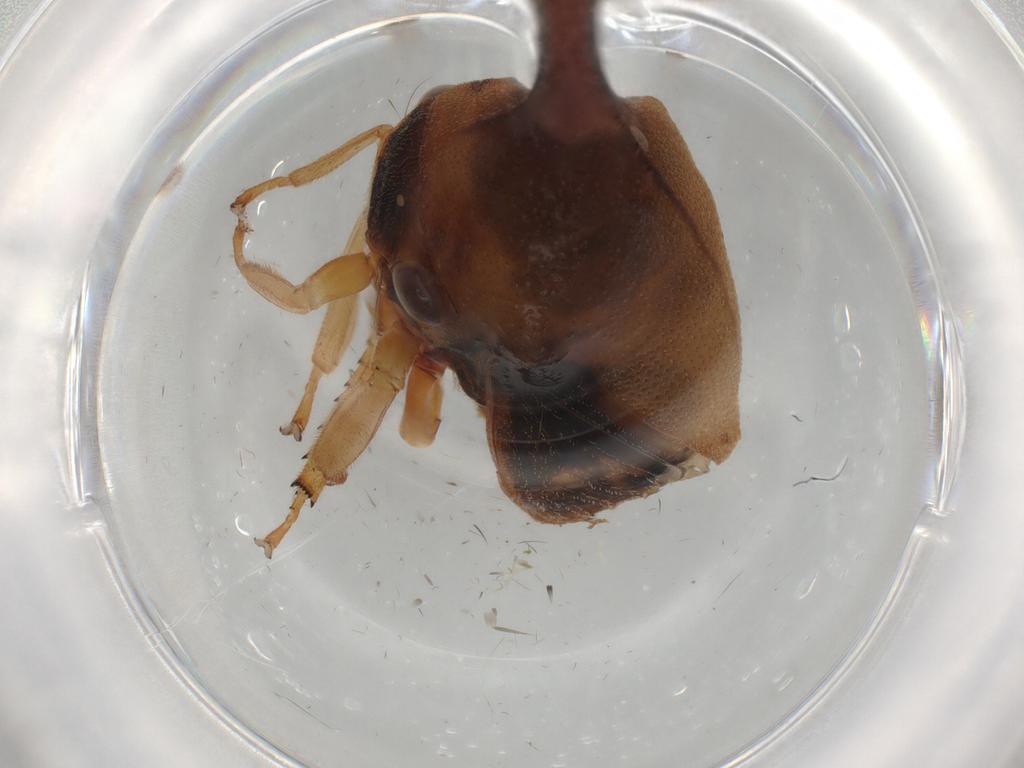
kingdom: Animalia
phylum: Arthropoda
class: Insecta
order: Hemiptera
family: Membracidae
